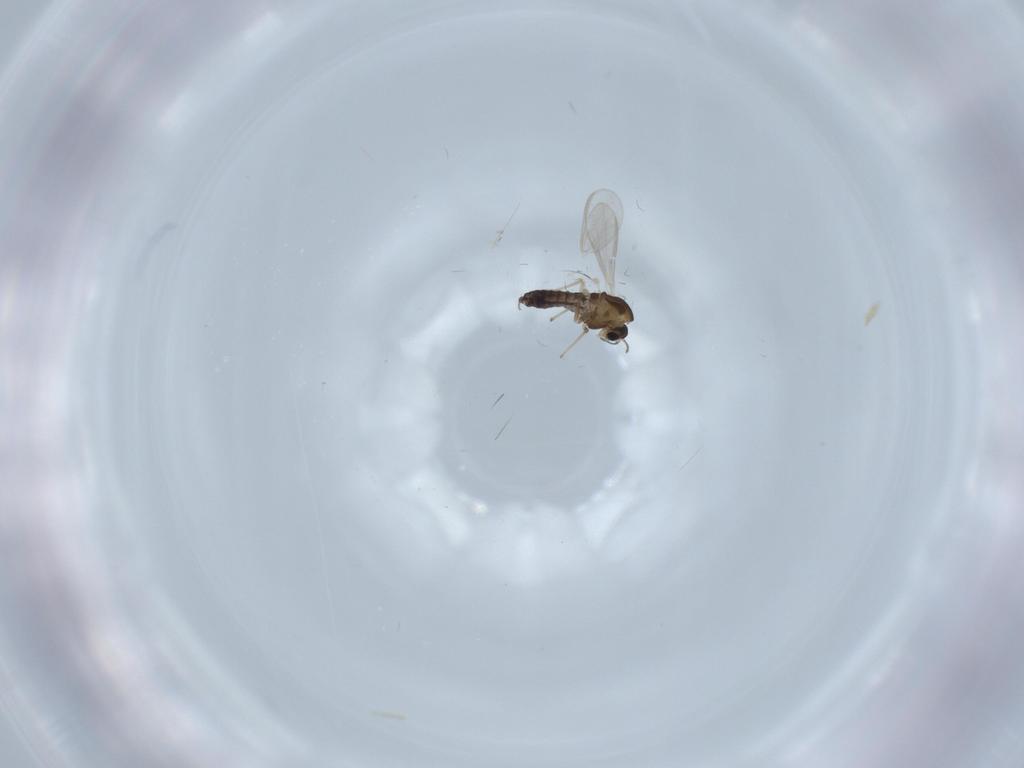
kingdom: Animalia
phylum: Arthropoda
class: Insecta
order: Diptera
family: Chironomidae
